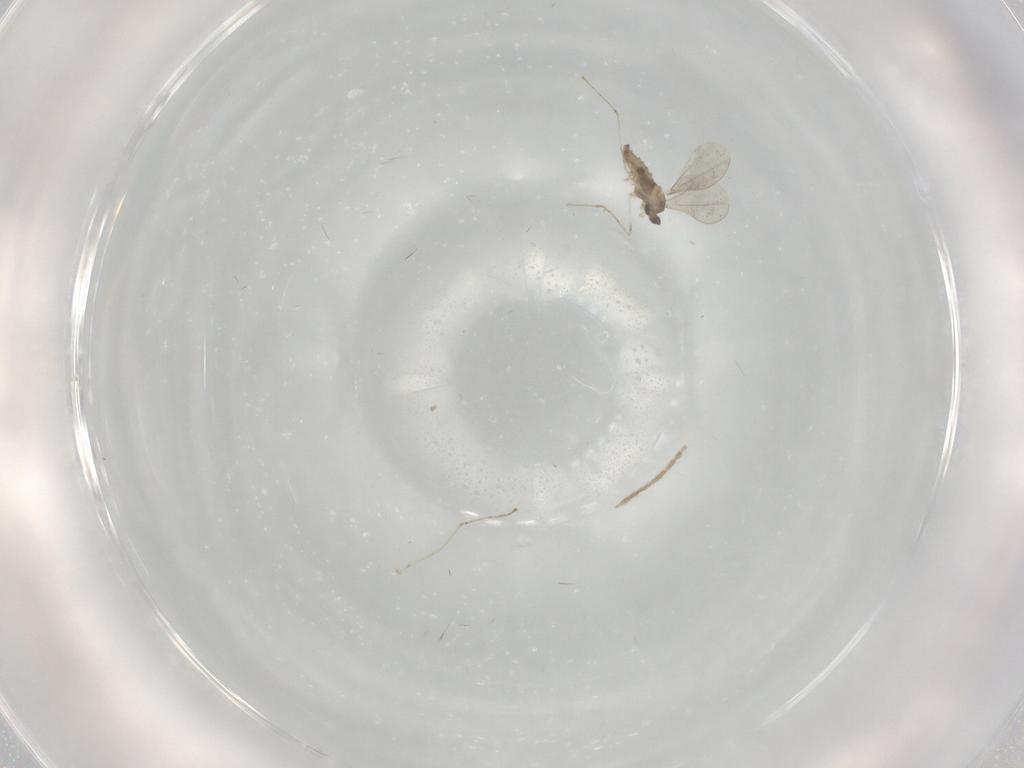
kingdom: Animalia
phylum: Arthropoda
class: Insecta
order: Diptera
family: Cecidomyiidae
